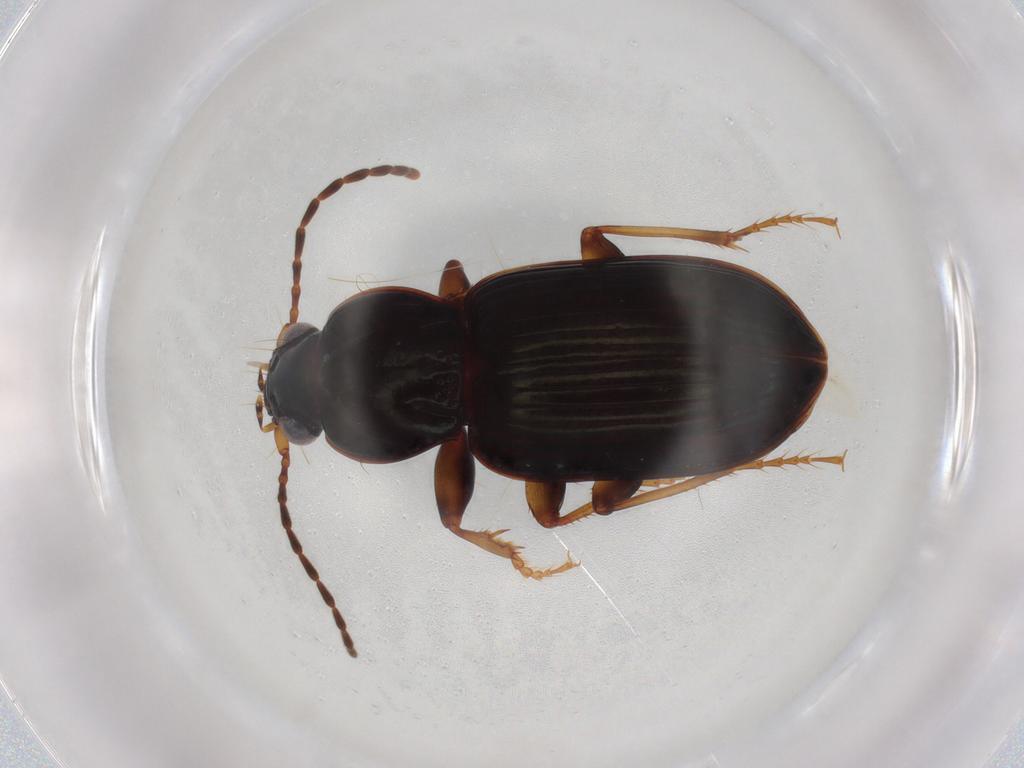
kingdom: Animalia
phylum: Arthropoda
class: Insecta
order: Coleoptera
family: Carabidae
